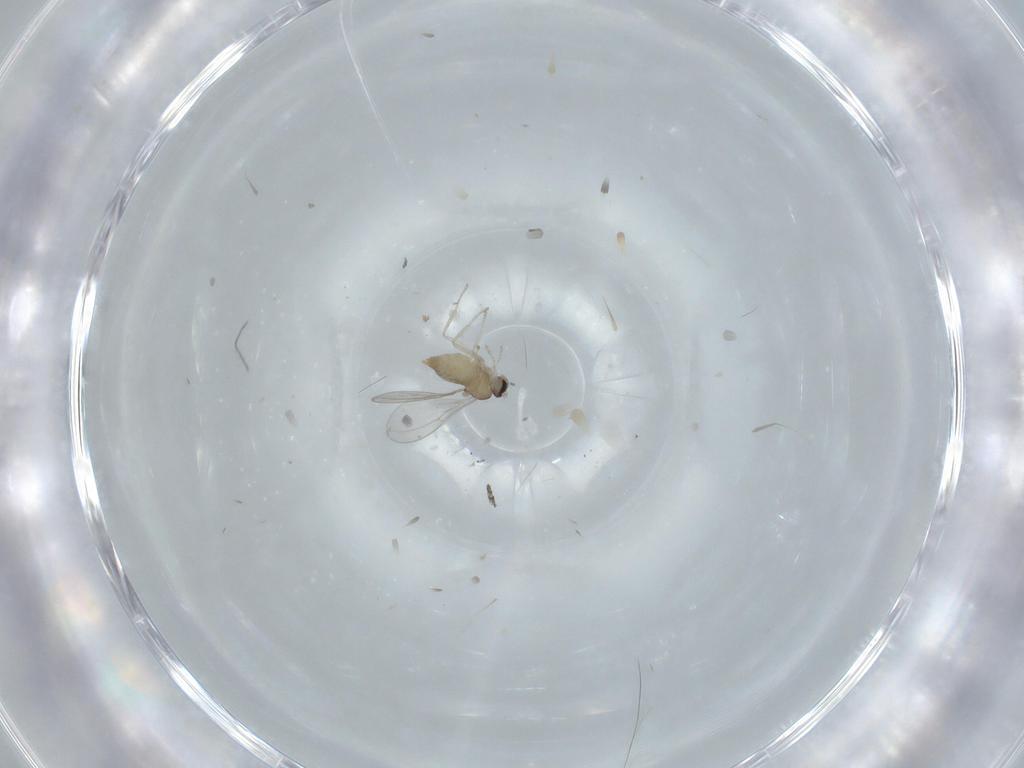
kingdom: Animalia
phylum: Arthropoda
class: Insecta
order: Diptera
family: Cecidomyiidae
